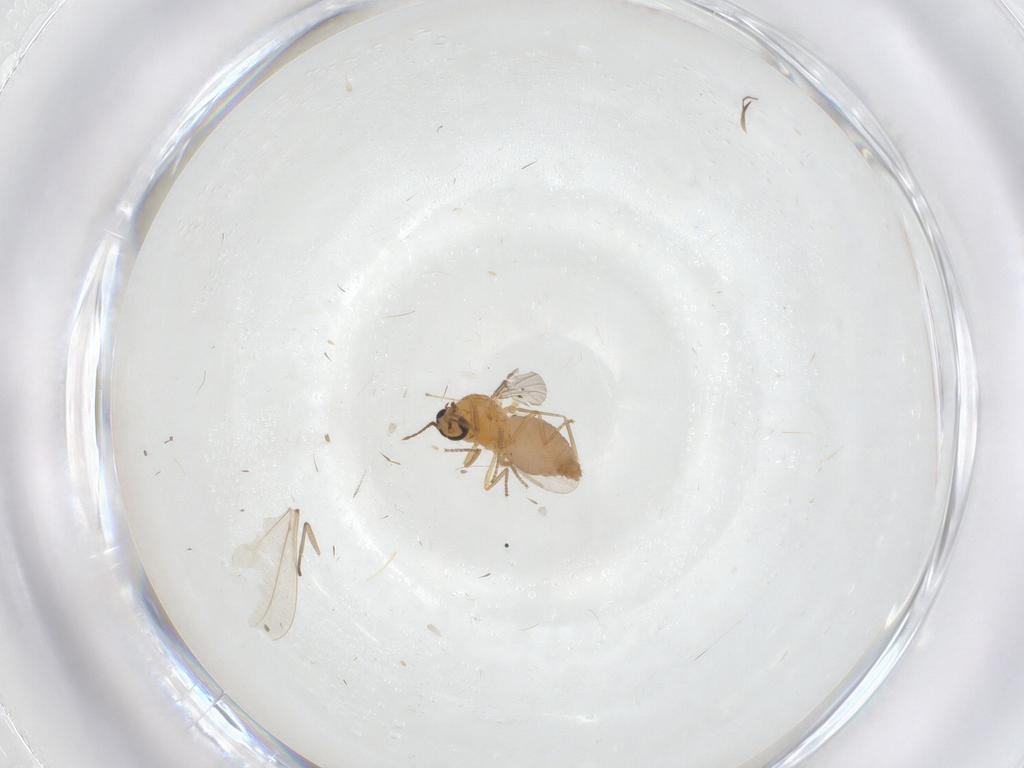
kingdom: Animalia
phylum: Arthropoda
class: Insecta
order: Diptera
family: Ceratopogonidae
